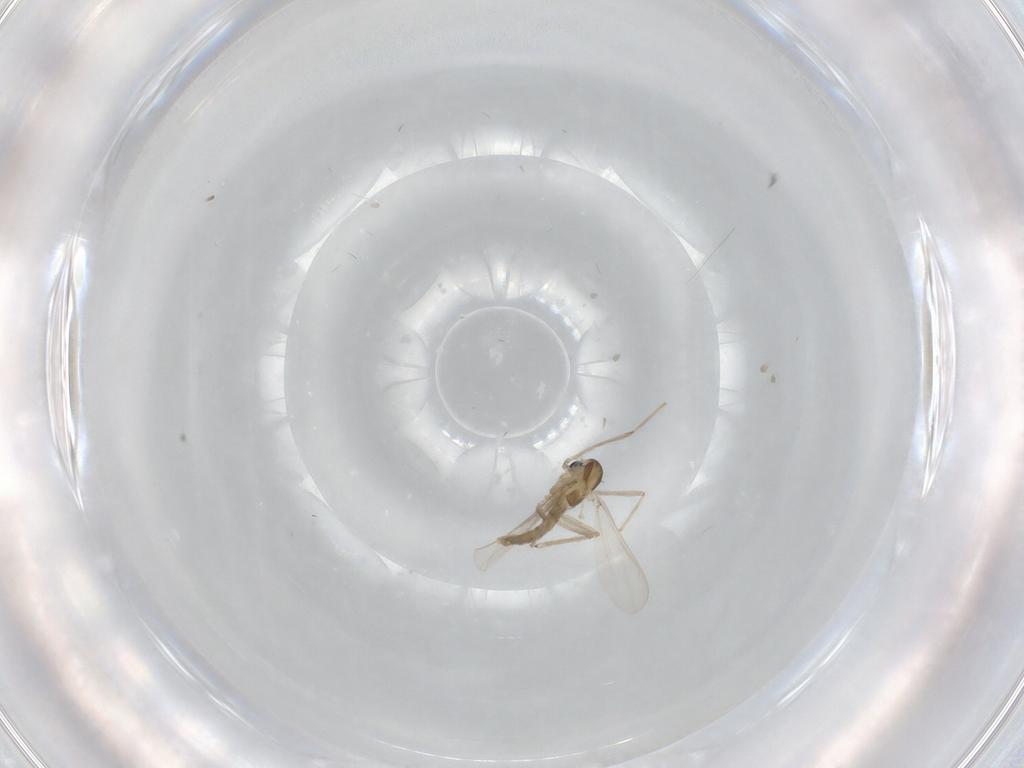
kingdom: Animalia
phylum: Arthropoda
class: Insecta
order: Diptera
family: Chironomidae
